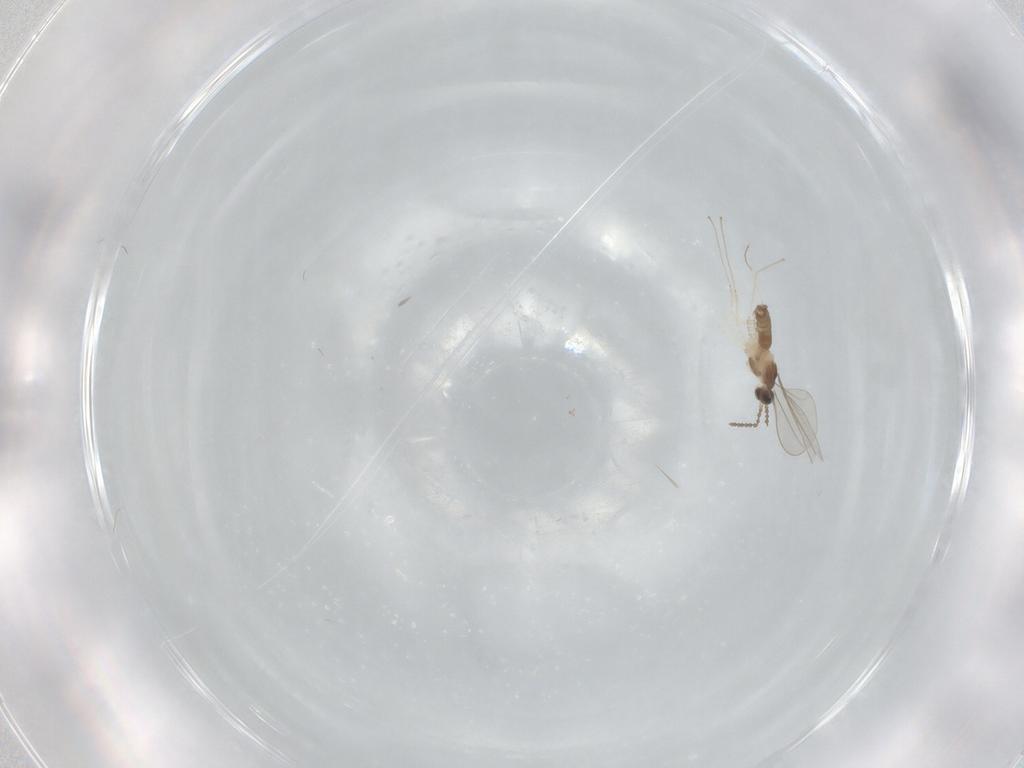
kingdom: Animalia
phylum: Arthropoda
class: Insecta
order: Diptera
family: Cecidomyiidae
